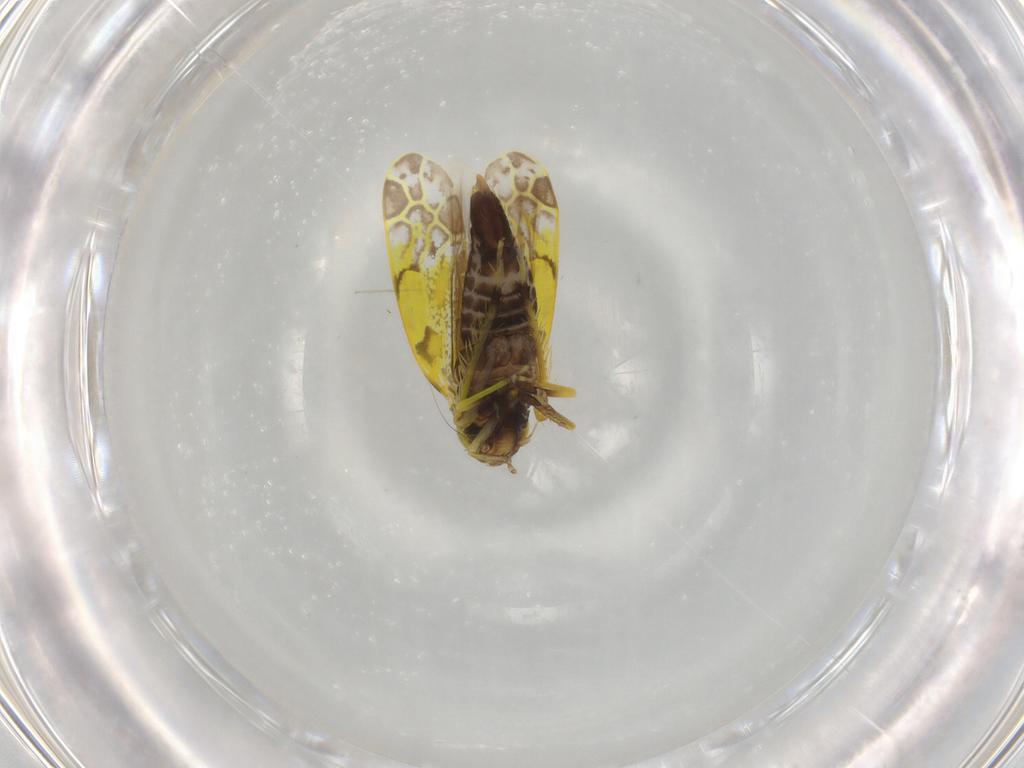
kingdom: Animalia
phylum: Arthropoda
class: Insecta
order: Hemiptera
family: Cicadellidae
